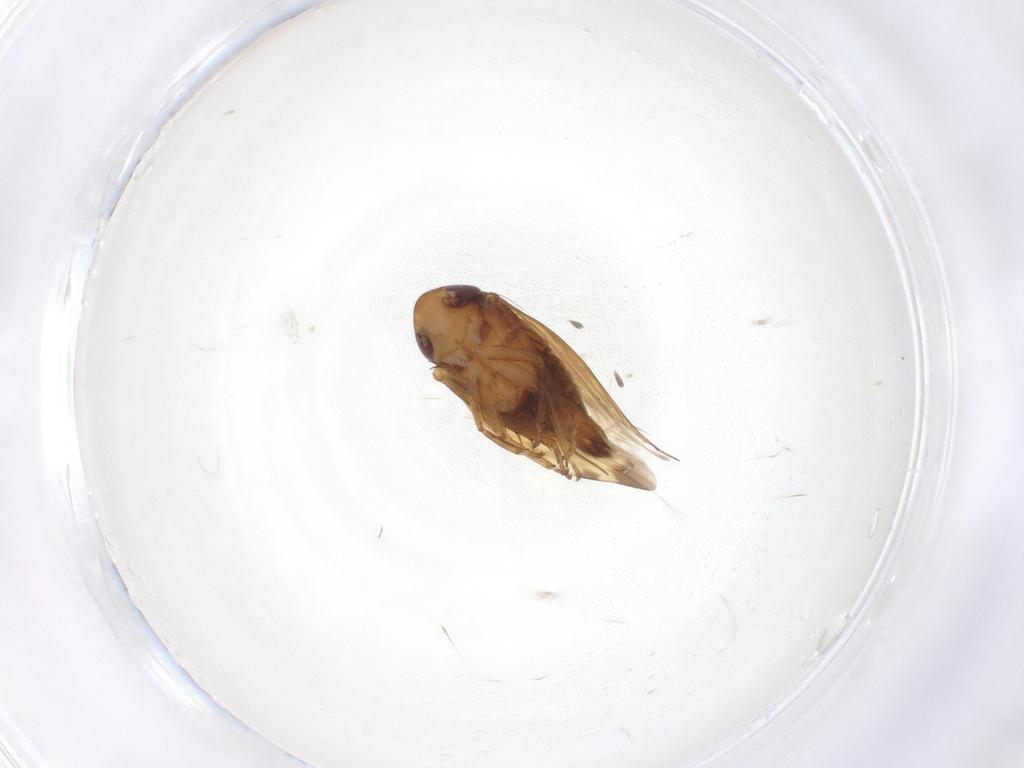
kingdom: Animalia
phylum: Arthropoda
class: Insecta
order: Hemiptera
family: Cicadellidae
